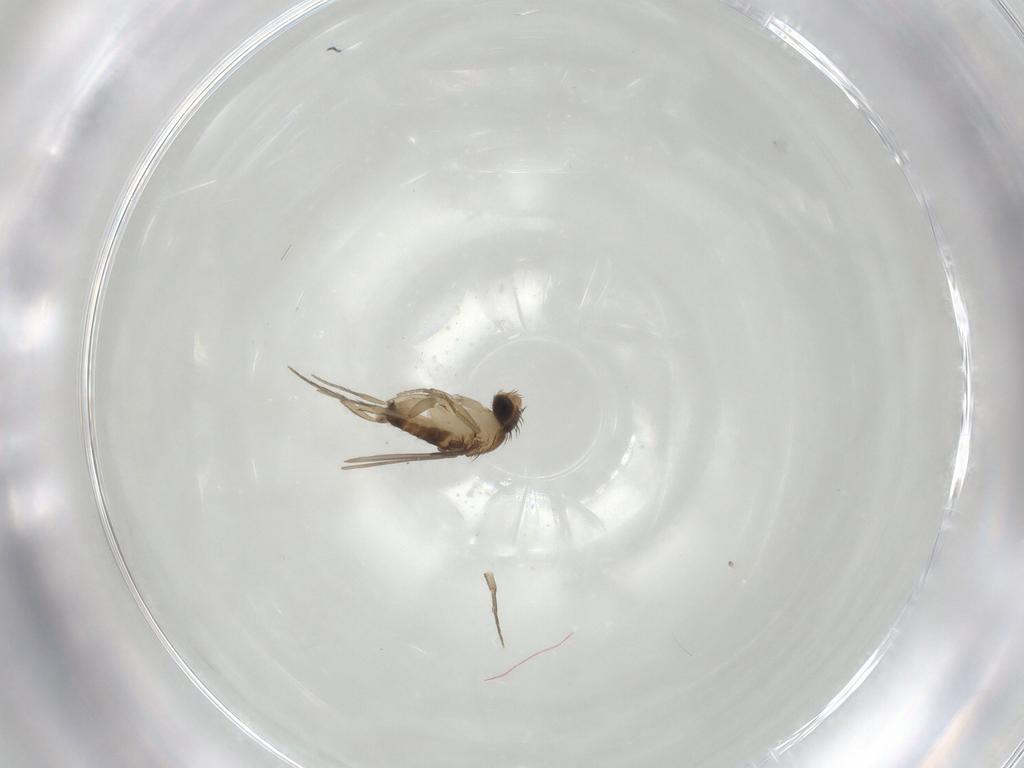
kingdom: Animalia
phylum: Arthropoda
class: Insecta
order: Diptera
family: Phoridae
